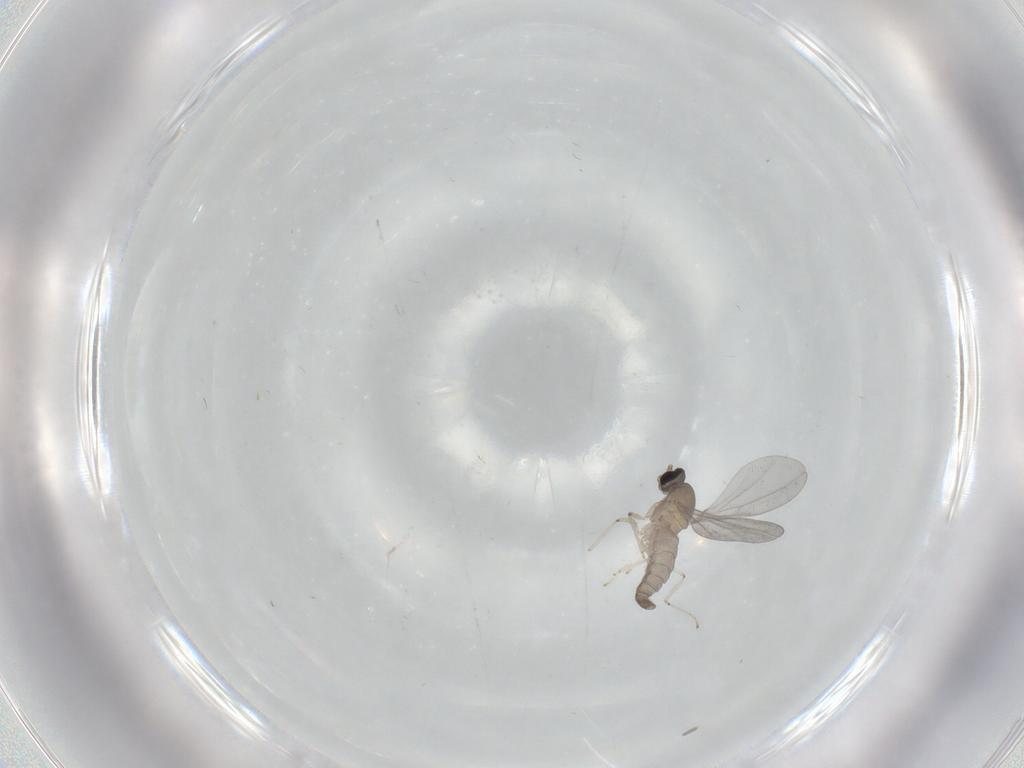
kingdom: Animalia
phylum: Arthropoda
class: Insecta
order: Diptera
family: Cecidomyiidae
